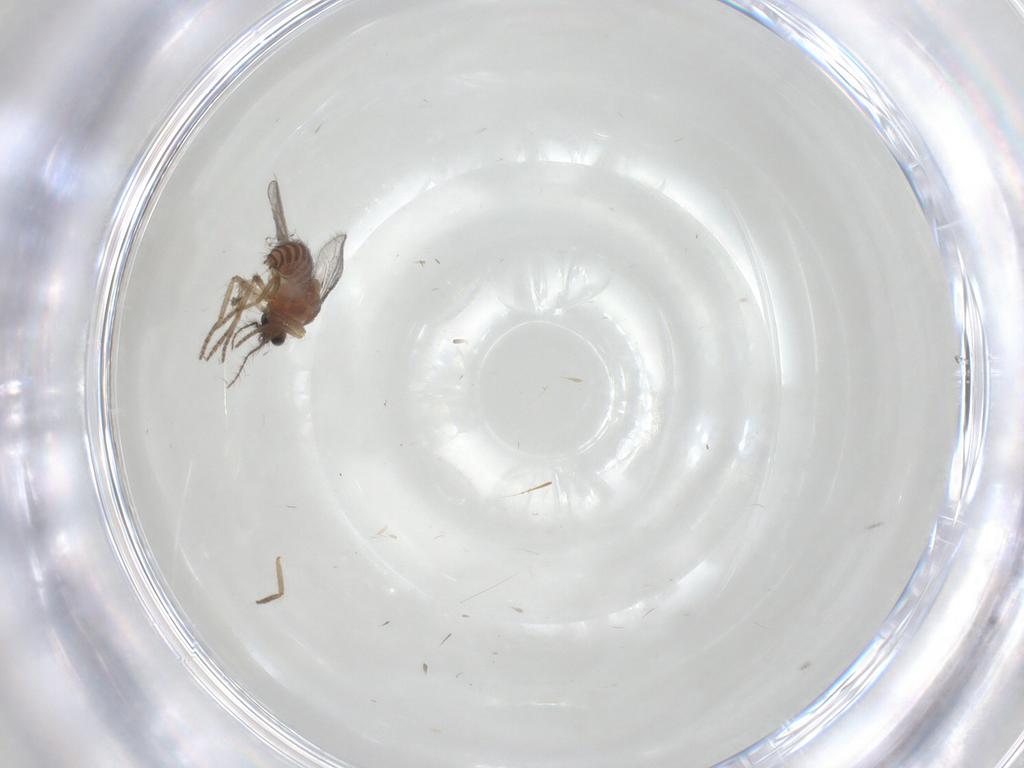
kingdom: Animalia
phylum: Arthropoda
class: Insecta
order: Diptera
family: Ceratopogonidae
